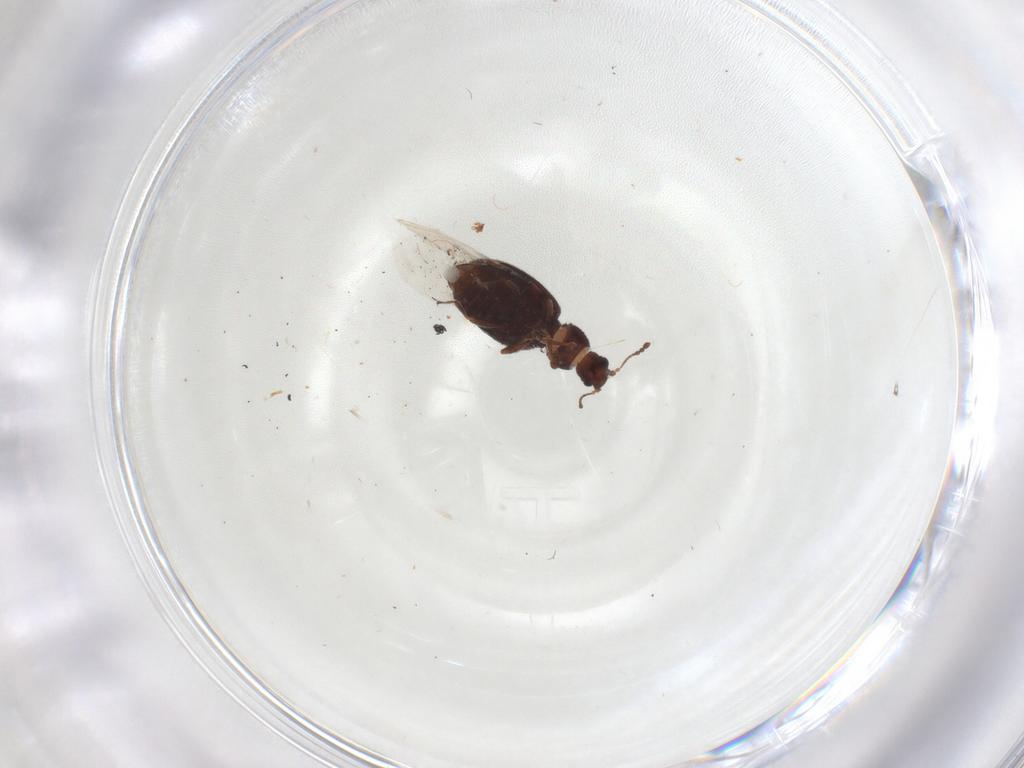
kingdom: Animalia
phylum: Arthropoda
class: Insecta
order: Coleoptera
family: Latridiidae
